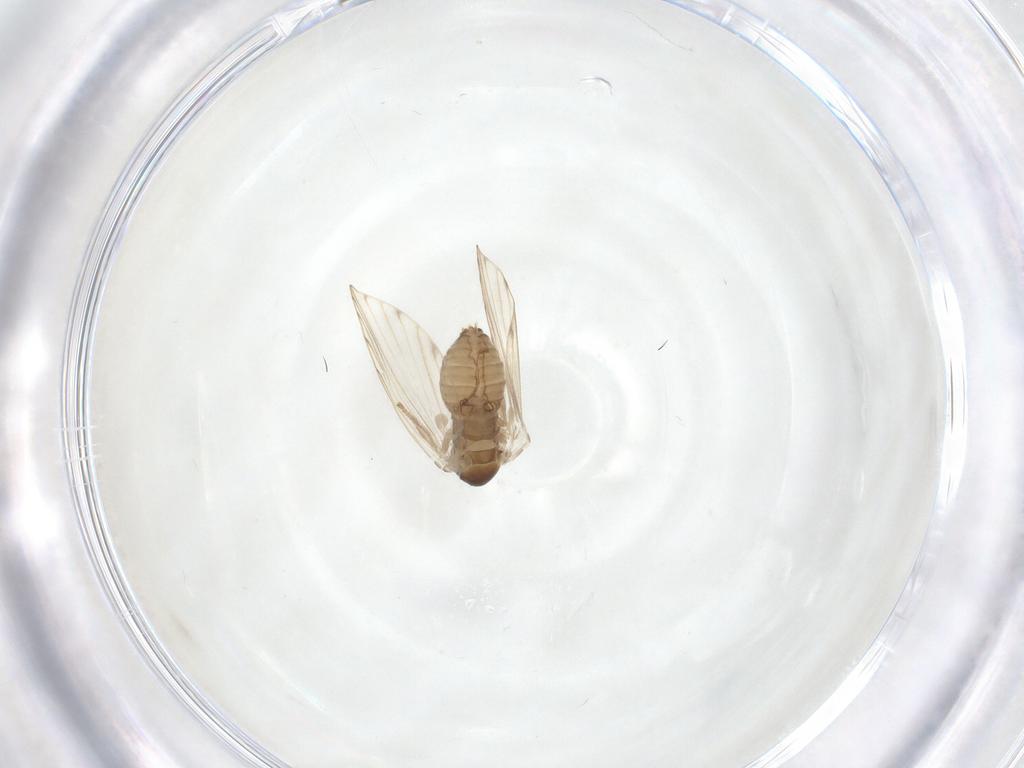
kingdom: Animalia
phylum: Arthropoda
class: Insecta
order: Diptera
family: Psychodidae
